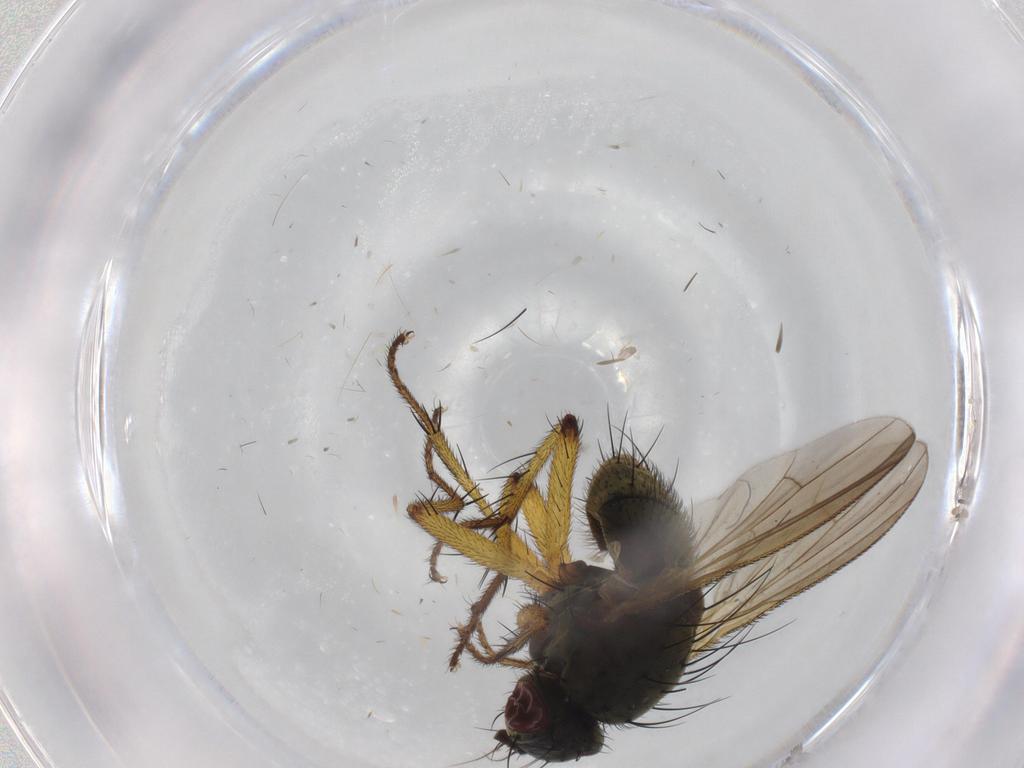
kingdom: Animalia
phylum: Arthropoda
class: Insecta
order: Diptera
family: Muscidae
